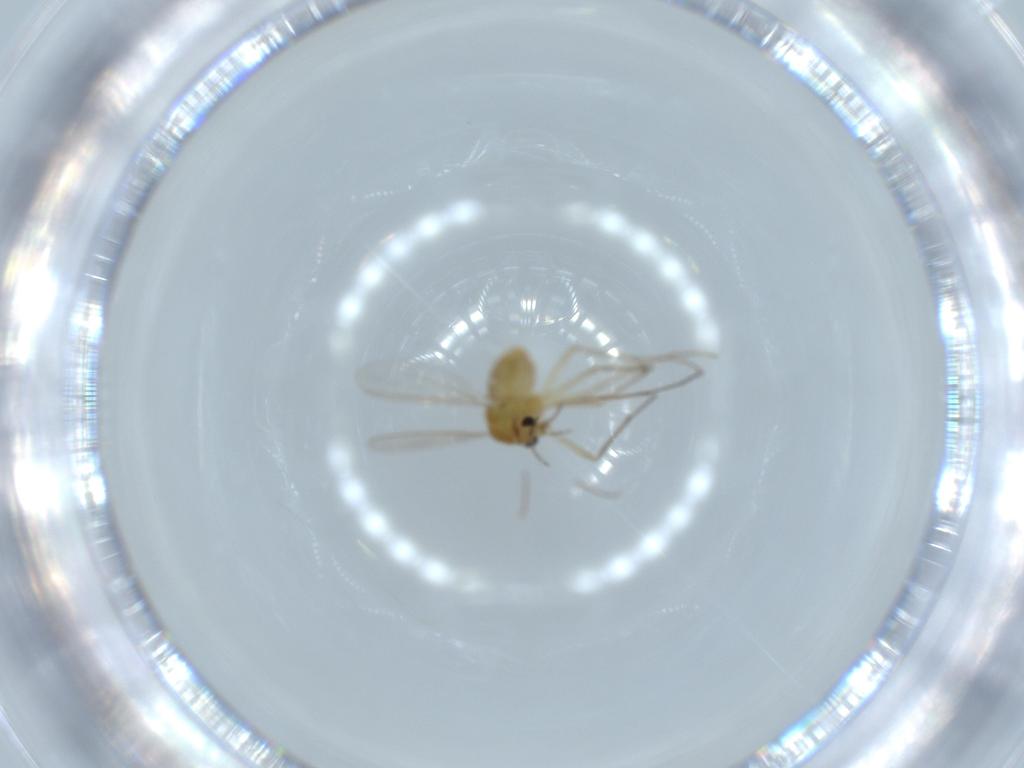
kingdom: Animalia
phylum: Arthropoda
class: Insecta
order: Diptera
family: Chironomidae
